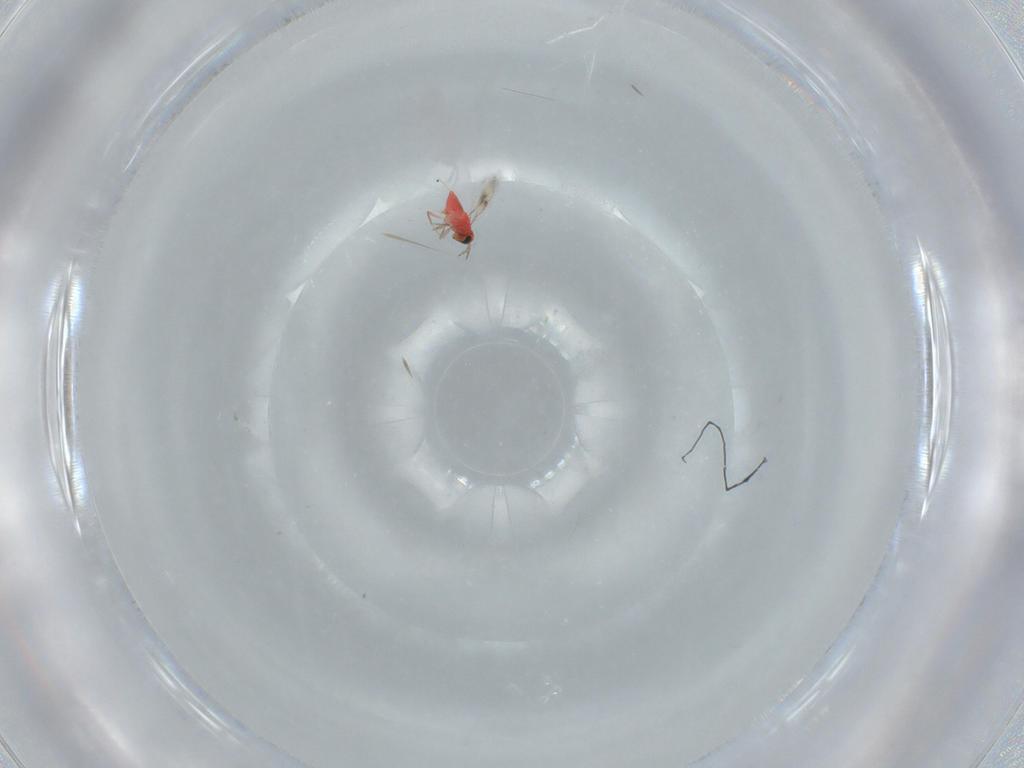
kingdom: Animalia
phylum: Arthropoda
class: Insecta
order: Hymenoptera
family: Trichogrammatidae
